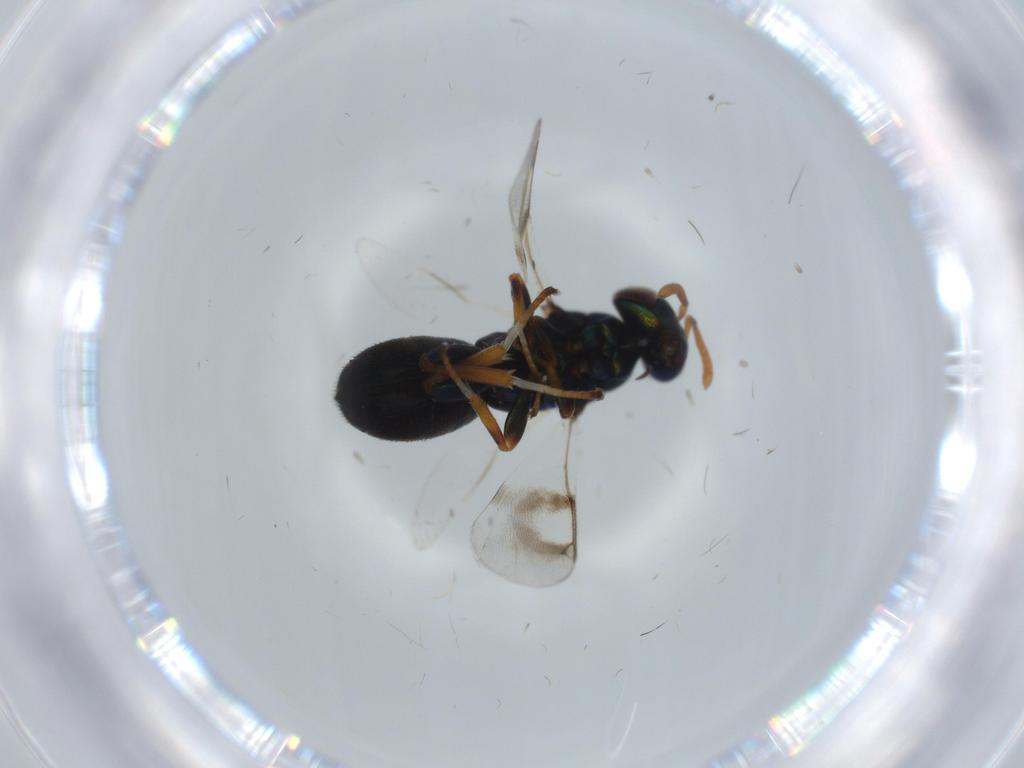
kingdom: Animalia
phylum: Arthropoda
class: Insecta
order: Hymenoptera
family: Cleonyminae
